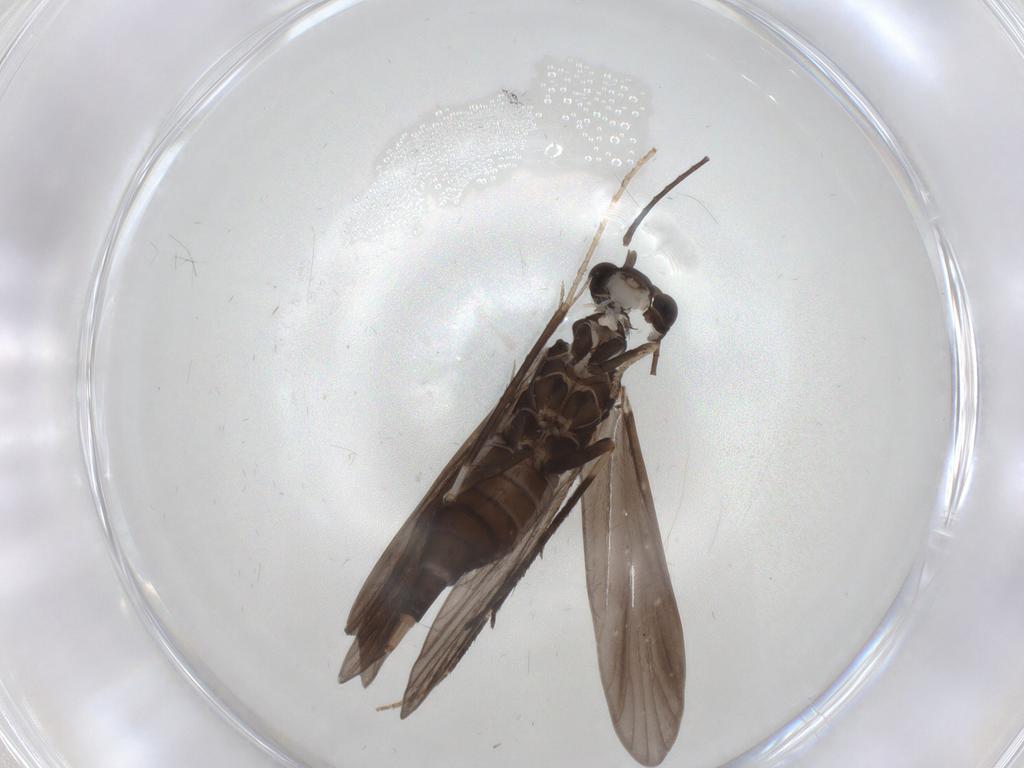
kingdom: Animalia
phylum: Arthropoda
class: Insecta
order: Trichoptera
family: Xiphocentronidae
